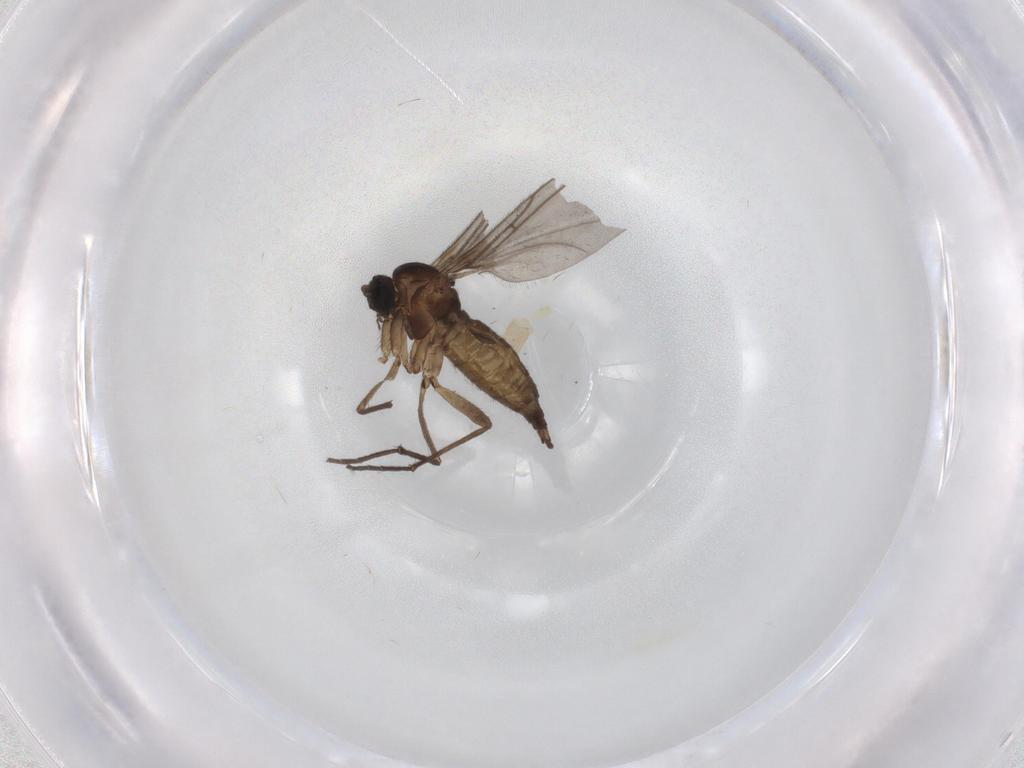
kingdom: Animalia
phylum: Arthropoda
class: Insecta
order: Diptera
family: Sciaridae
